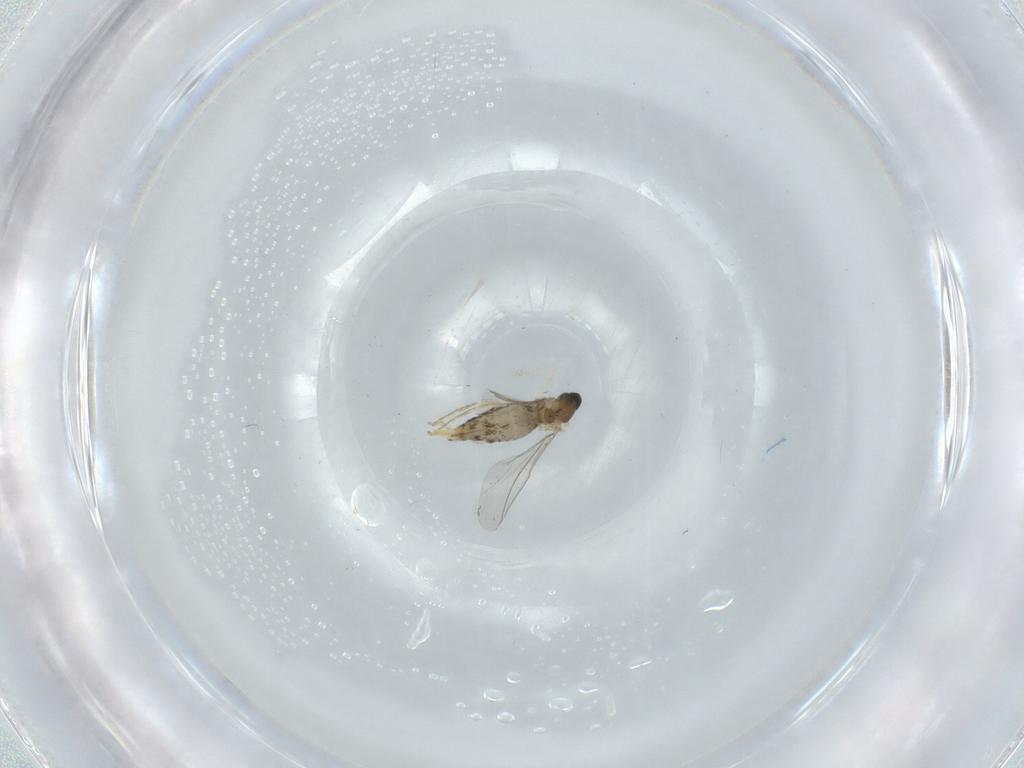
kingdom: Animalia
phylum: Arthropoda
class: Insecta
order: Diptera
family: Cecidomyiidae
